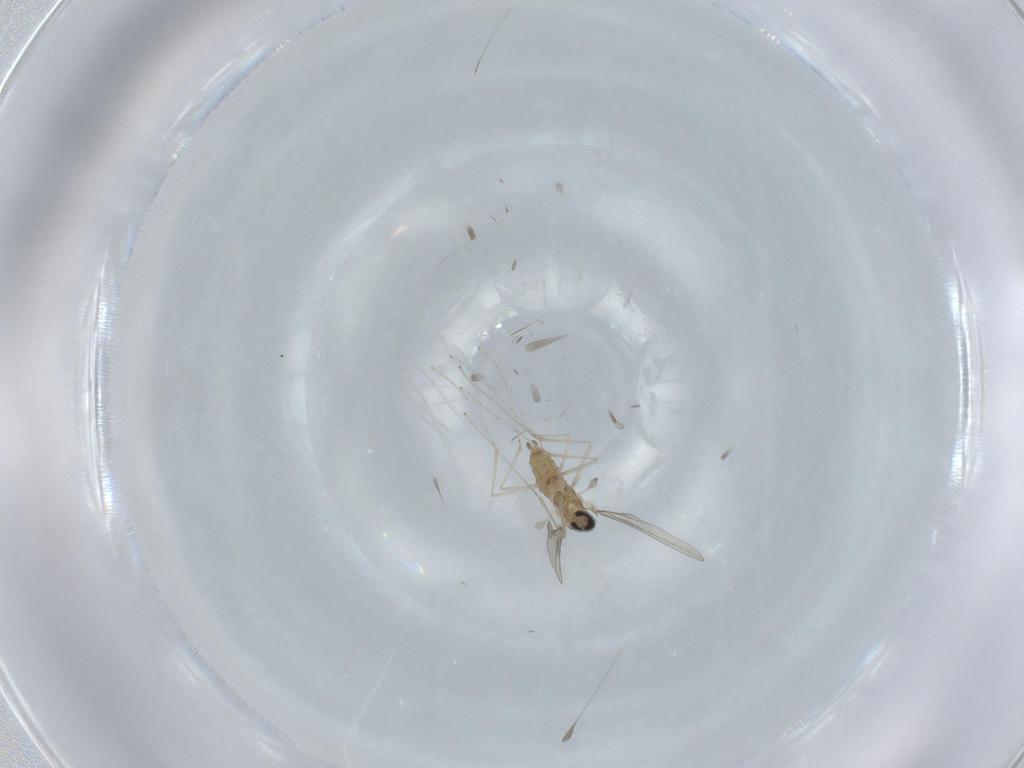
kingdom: Animalia
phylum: Arthropoda
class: Insecta
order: Diptera
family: Cecidomyiidae
